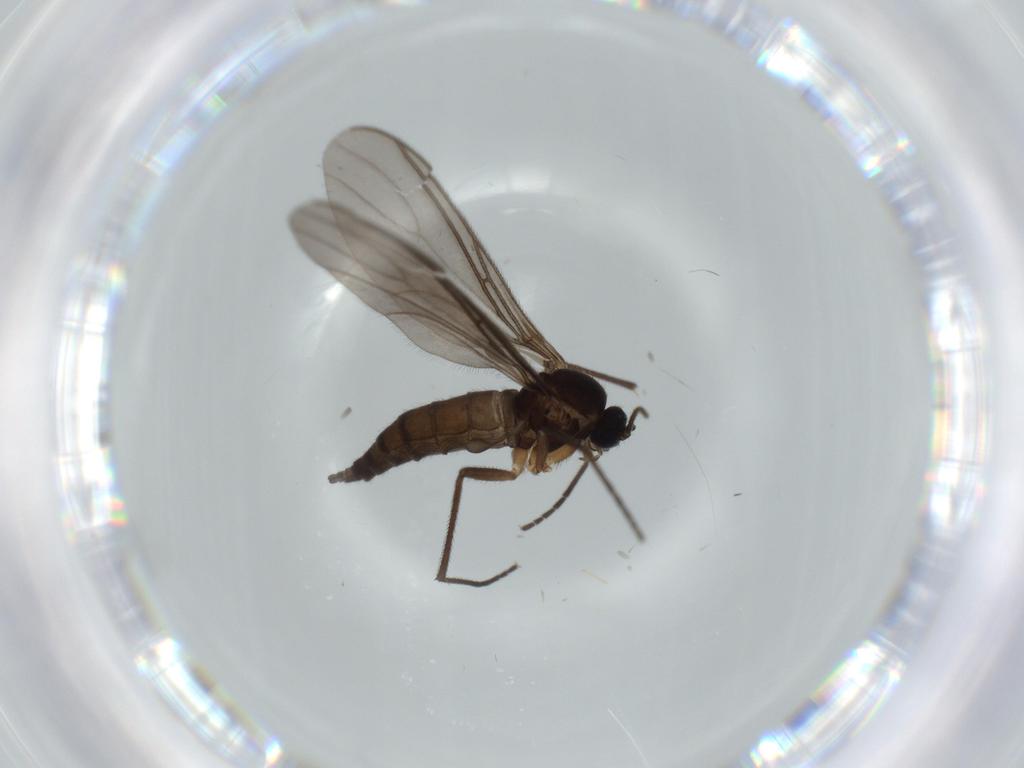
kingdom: Animalia
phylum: Arthropoda
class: Insecta
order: Diptera
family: Sciaridae
